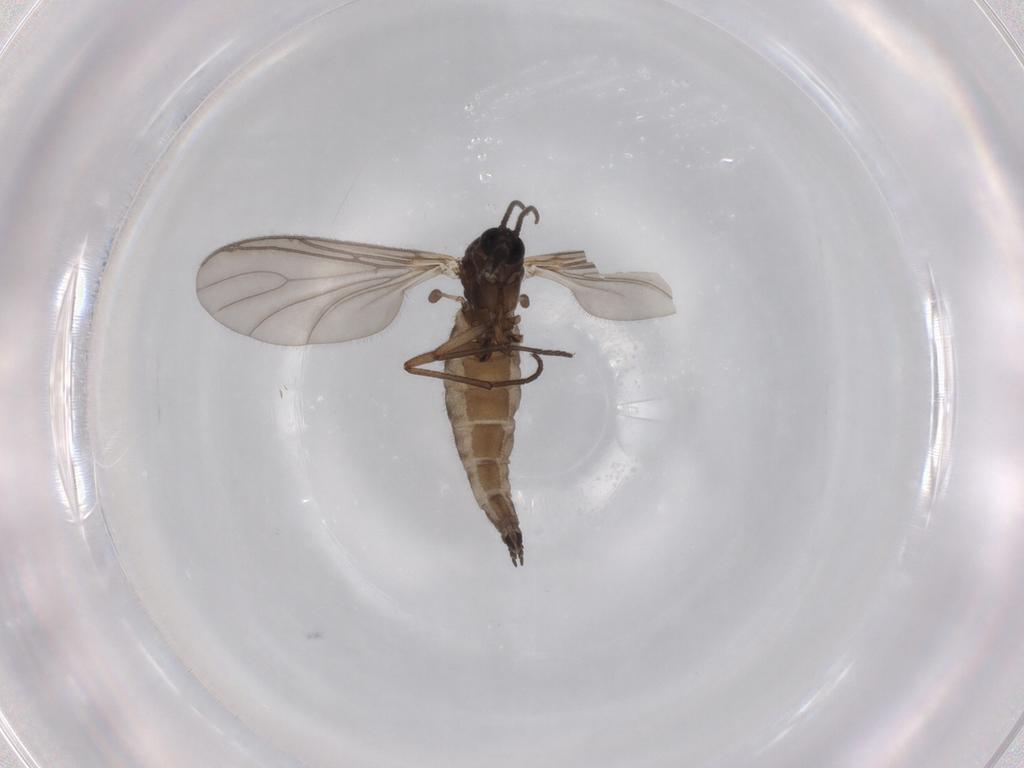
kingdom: Animalia
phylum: Arthropoda
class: Insecta
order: Diptera
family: Sciaridae
